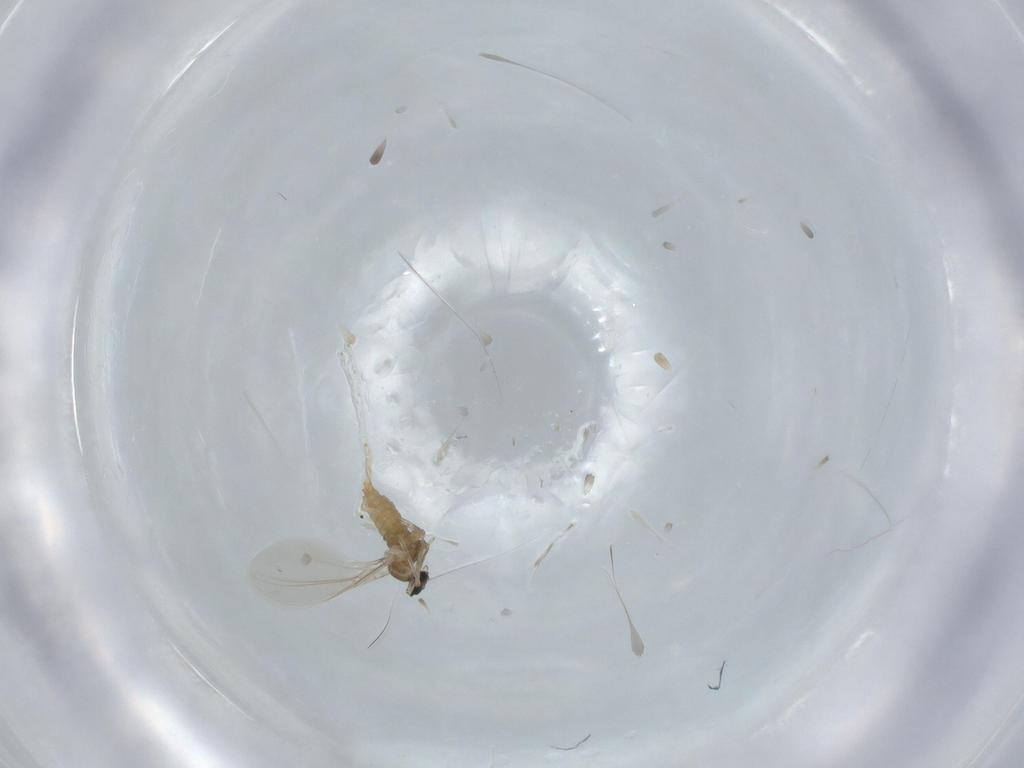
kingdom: Animalia
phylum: Arthropoda
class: Insecta
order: Diptera
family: Cecidomyiidae
